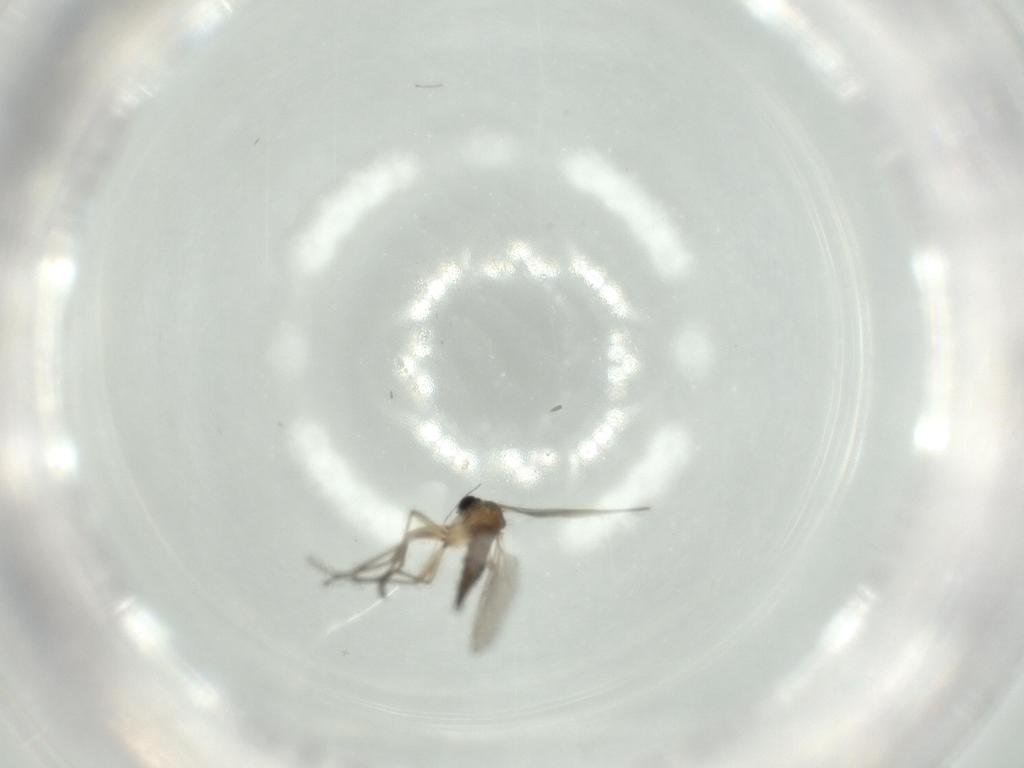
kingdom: Animalia
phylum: Arthropoda
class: Insecta
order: Diptera
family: Sciaridae
